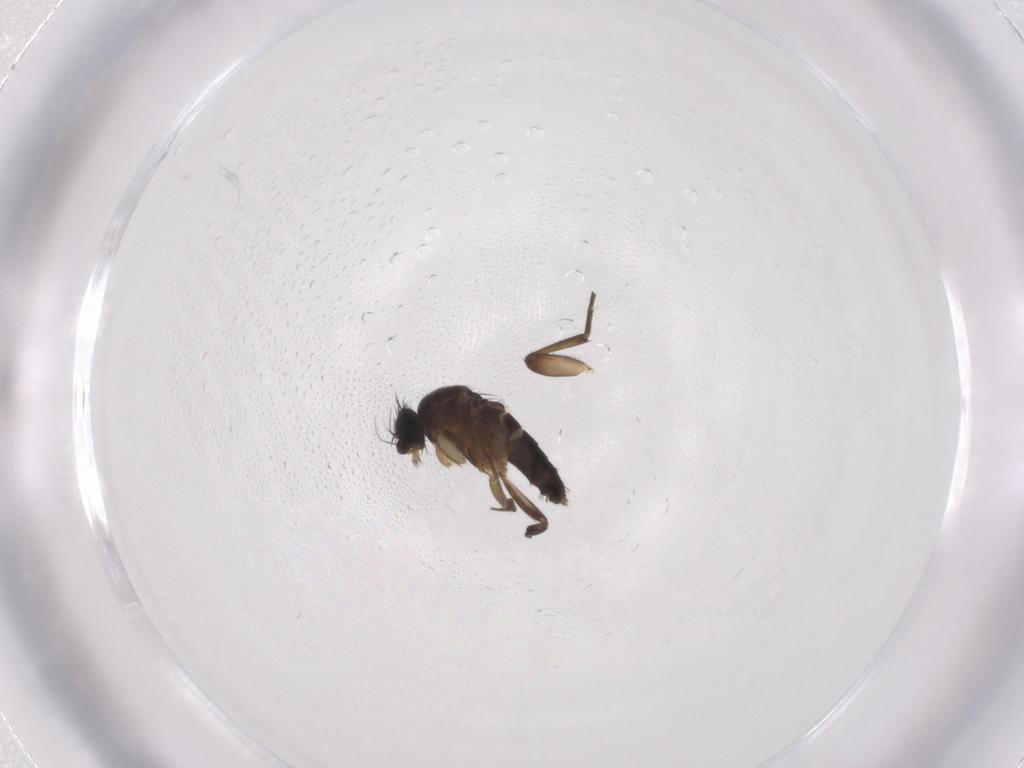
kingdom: Animalia
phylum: Arthropoda
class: Insecta
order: Diptera
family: Phoridae
